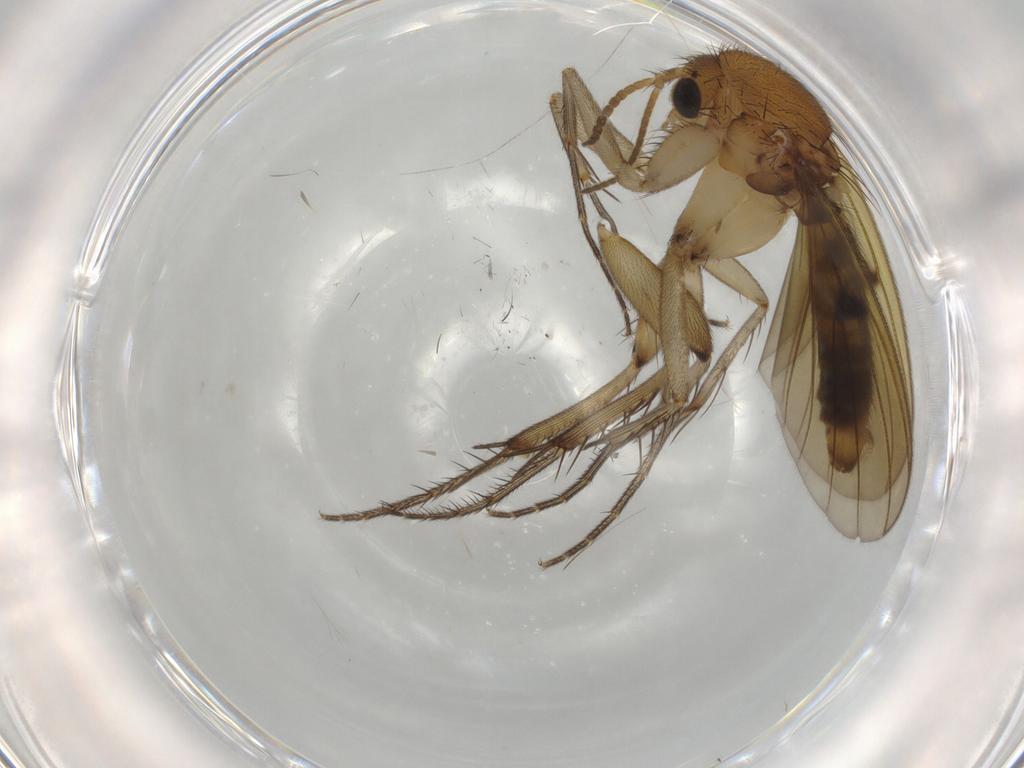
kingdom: Animalia
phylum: Arthropoda
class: Insecta
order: Diptera
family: Mycetophilidae
